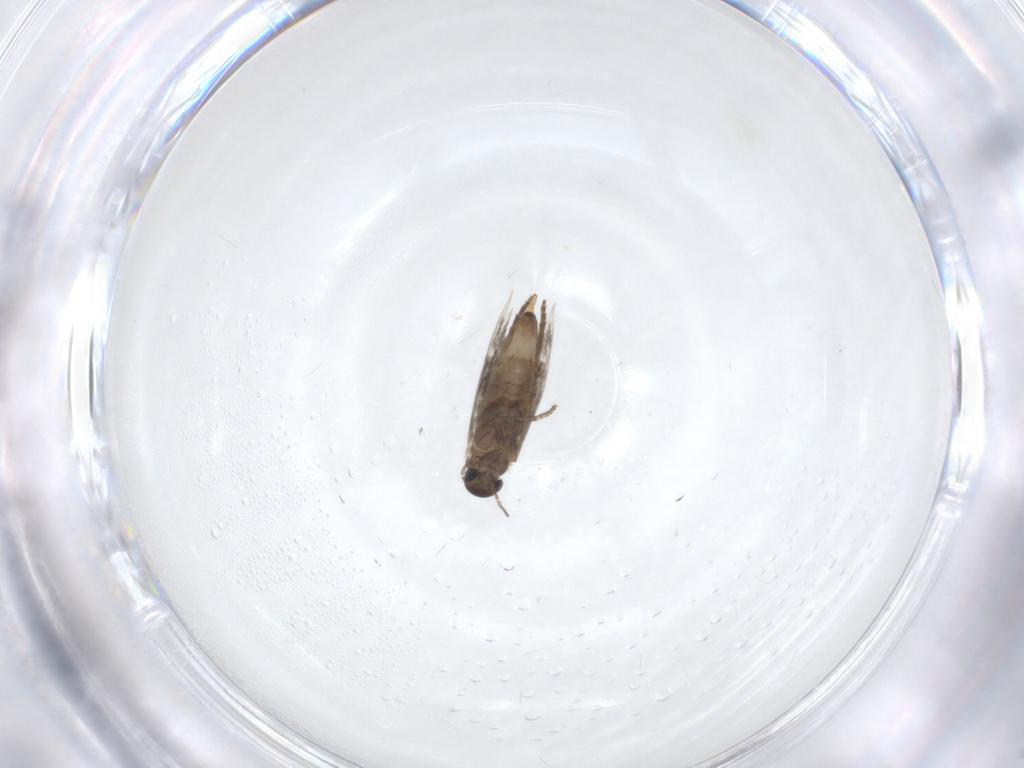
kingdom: Animalia
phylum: Arthropoda
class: Insecta
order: Lepidoptera
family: Heliozelidae
